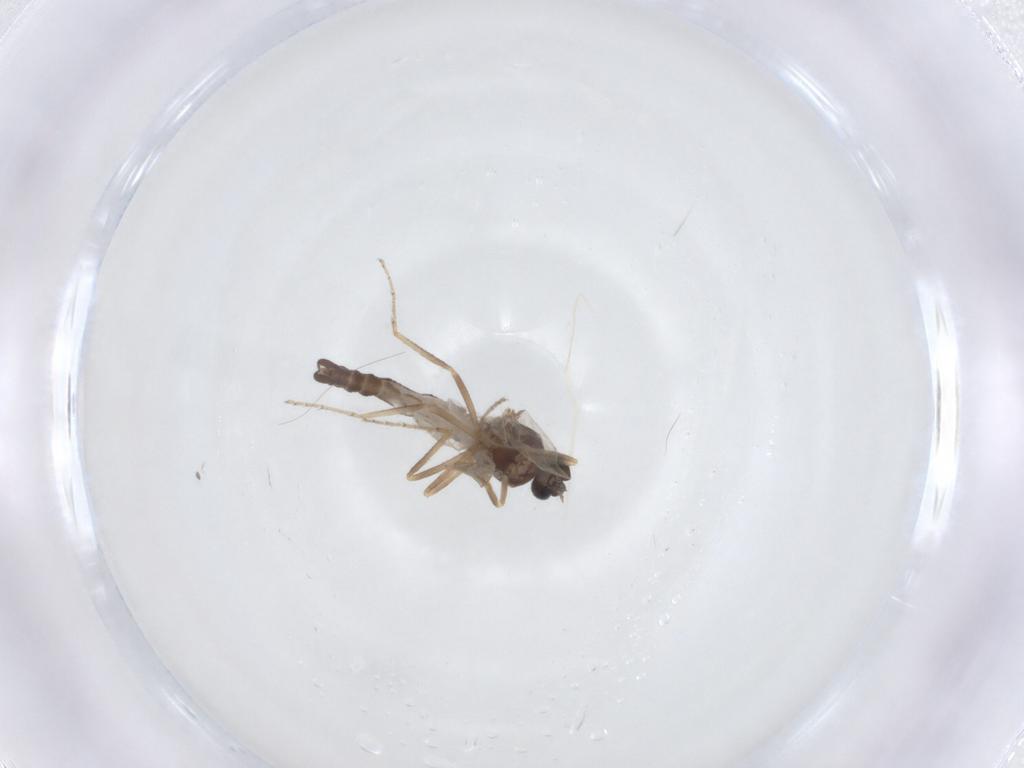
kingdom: Animalia
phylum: Arthropoda
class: Insecta
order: Diptera
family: Ceratopogonidae
